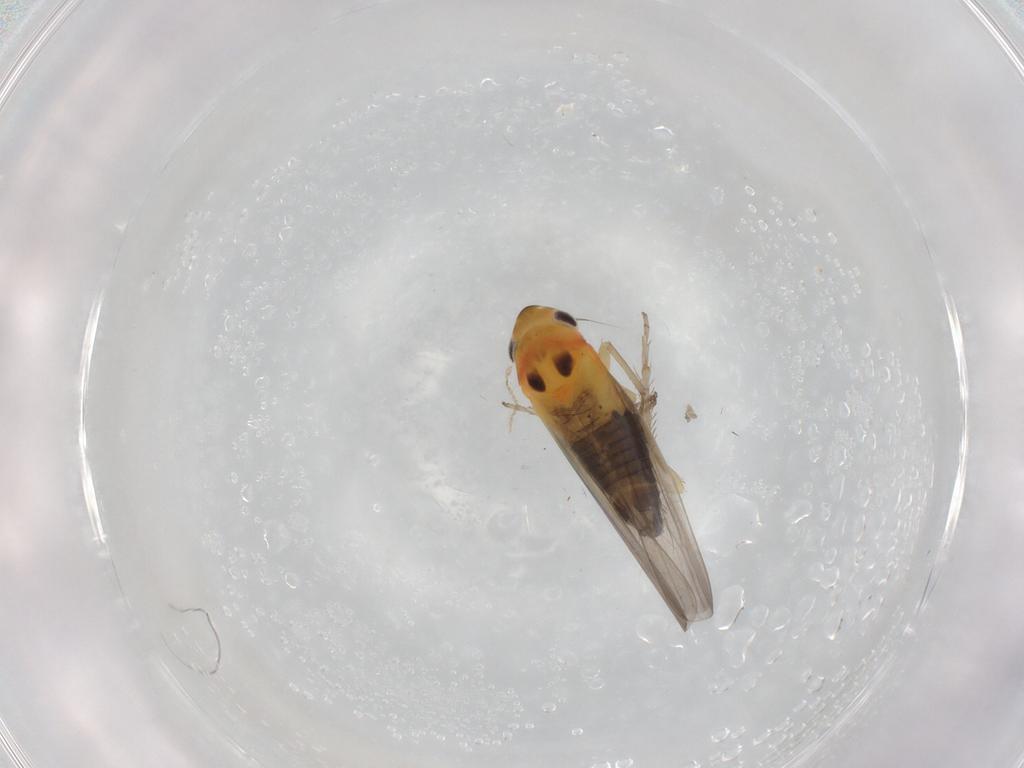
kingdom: Animalia
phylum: Arthropoda
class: Insecta
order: Hemiptera
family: Cicadellidae
